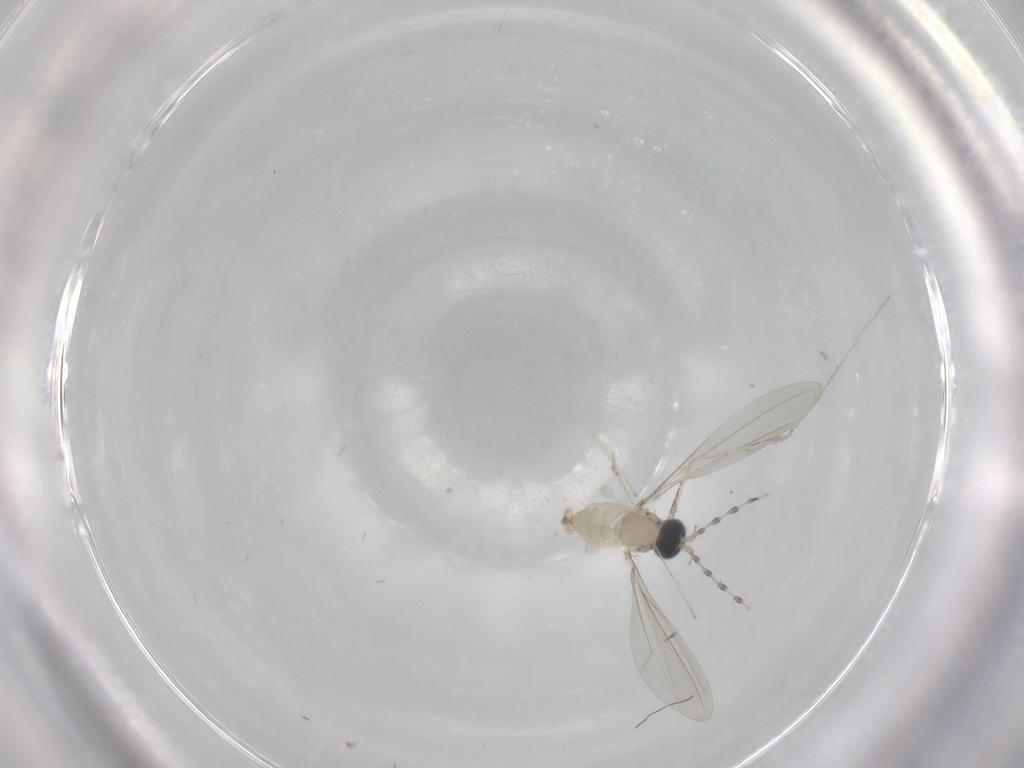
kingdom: Animalia
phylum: Arthropoda
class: Insecta
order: Diptera
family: Cecidomyiidae
